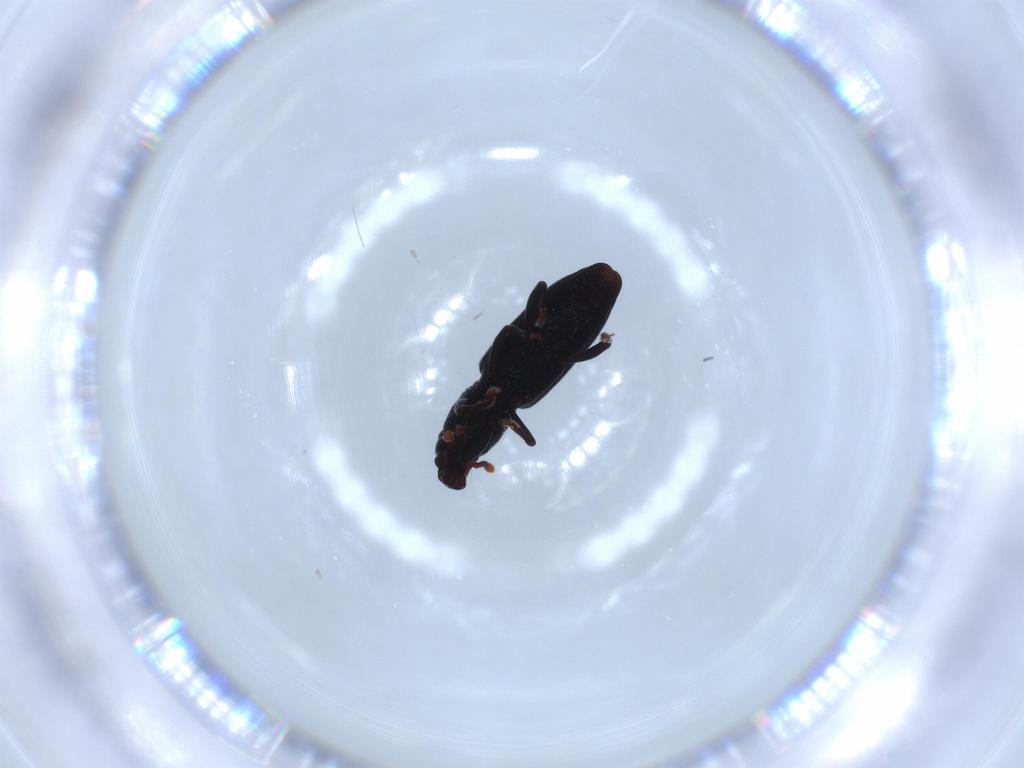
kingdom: Animalia
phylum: Arthropoda
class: Insecta
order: Coleoptera
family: Curculionidae
